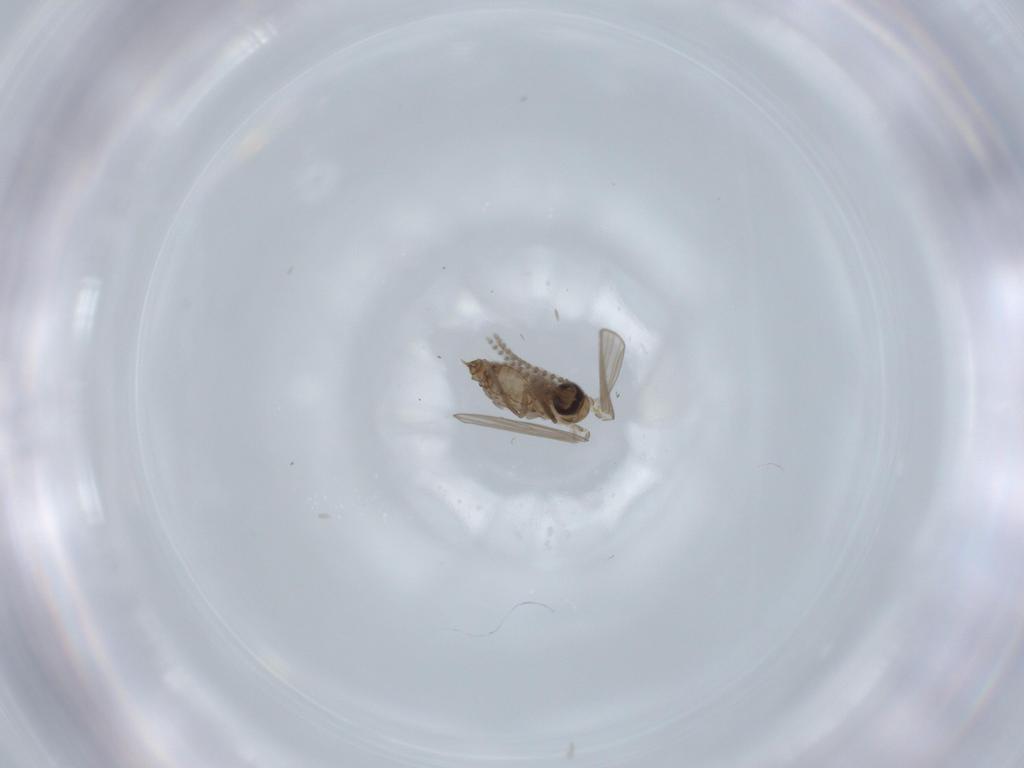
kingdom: Animalia
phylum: Arthropoda
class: Insecta
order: Diptera
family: Psychodidae
